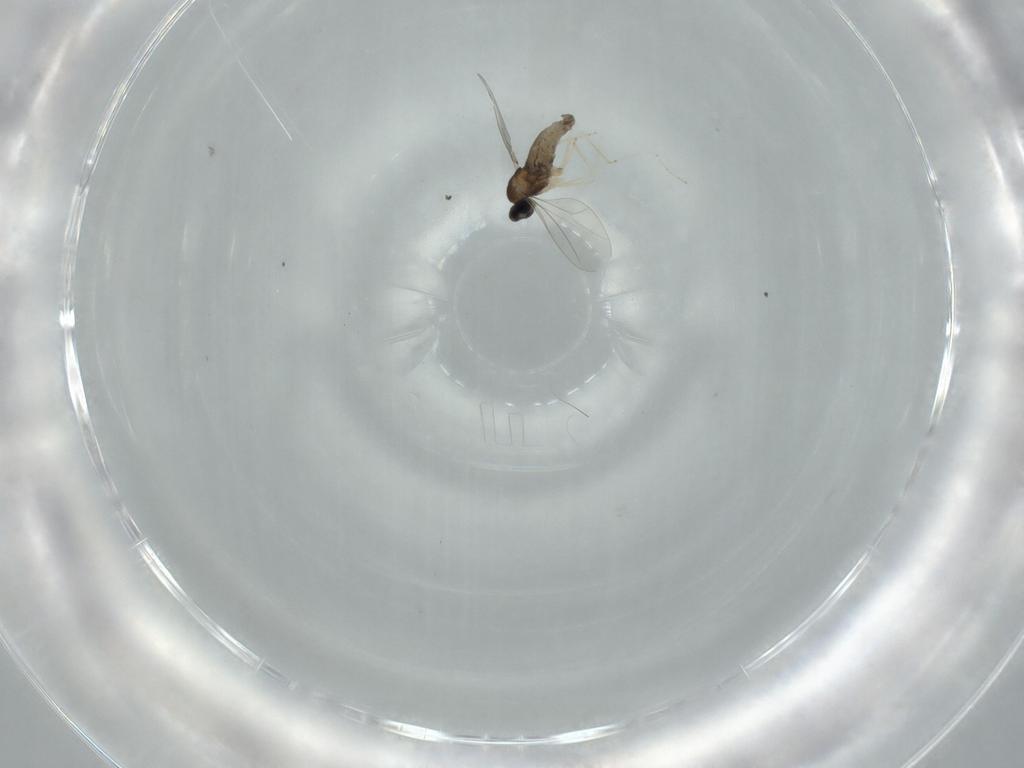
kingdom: Animalia
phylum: Arthropoda
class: Insecta
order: Diptera
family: Cecidomyiidae
